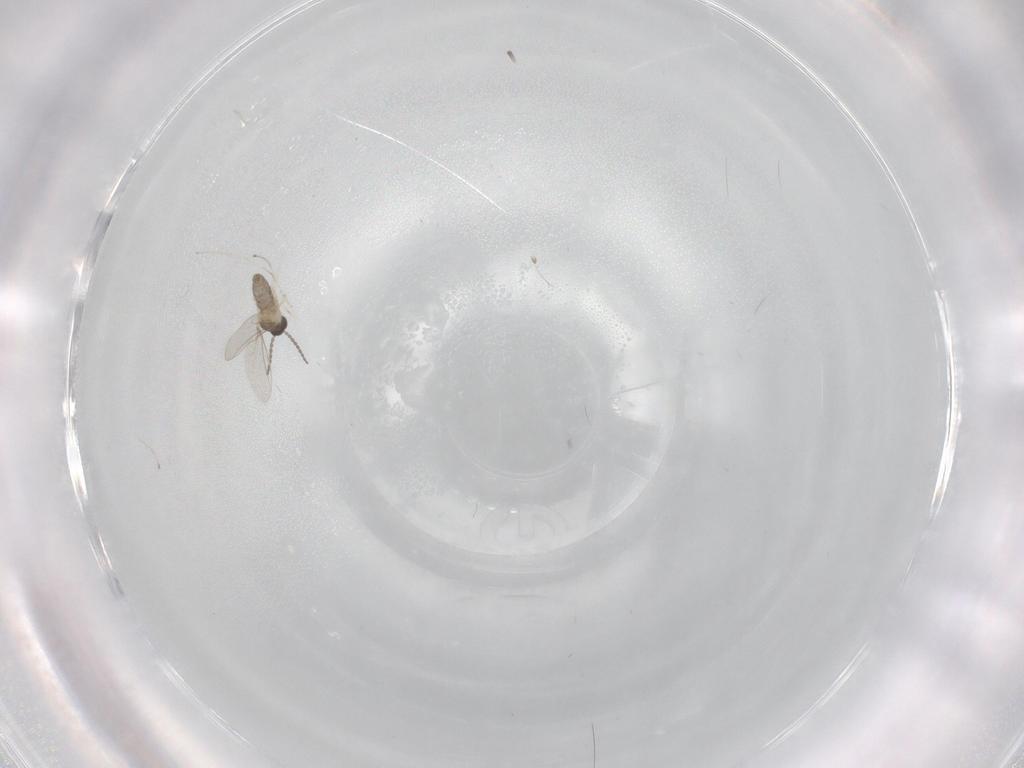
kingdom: Animalia
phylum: Arthropoda
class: Insecta
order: Diptera
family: Cecidomyiidae
